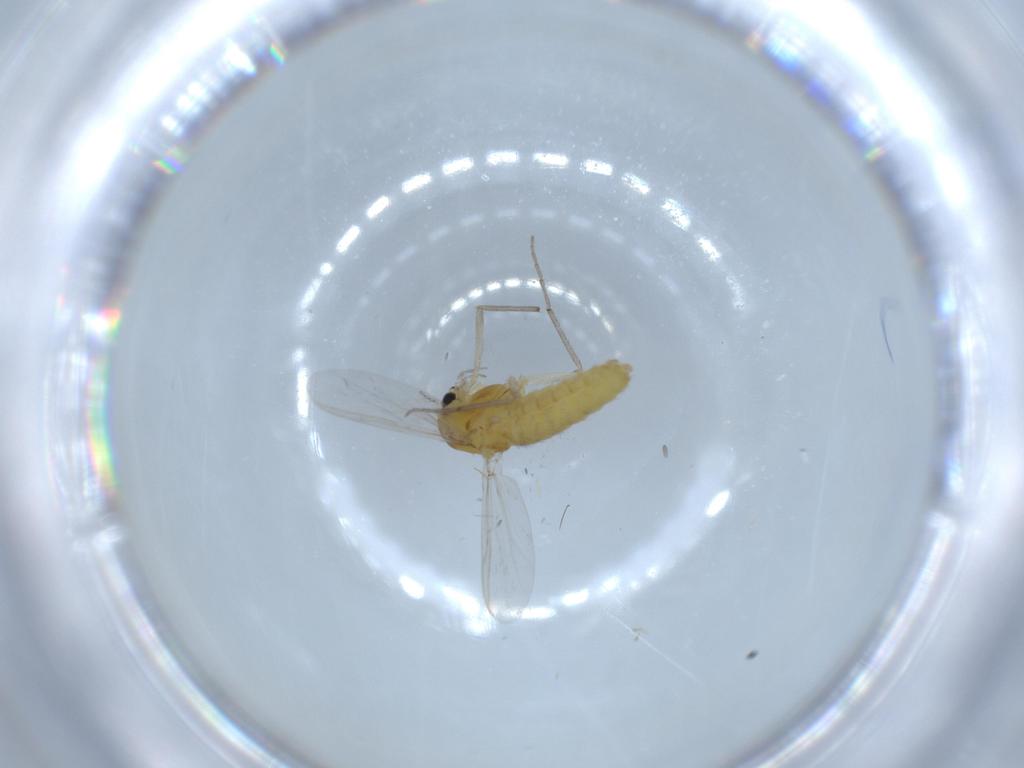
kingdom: Animalia
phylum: Arthropoda
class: Insecta
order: Diptera
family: Chironomidae
